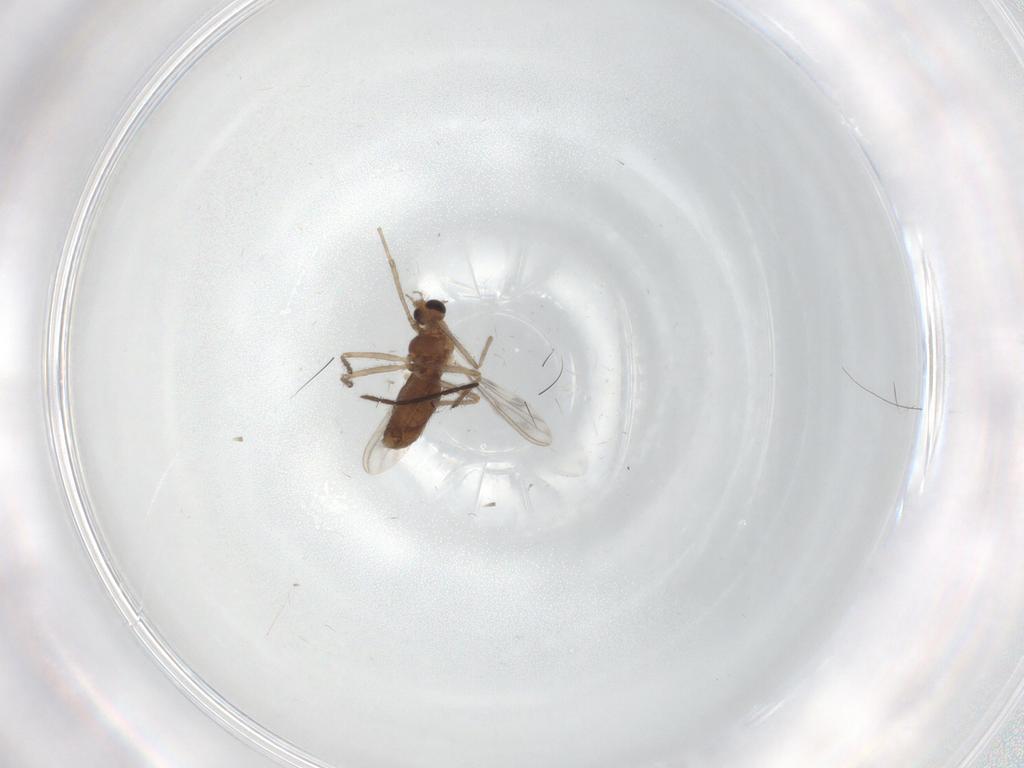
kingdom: Animalia
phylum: Arthropoda
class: Insecta
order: Diptera
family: Chironomidae
